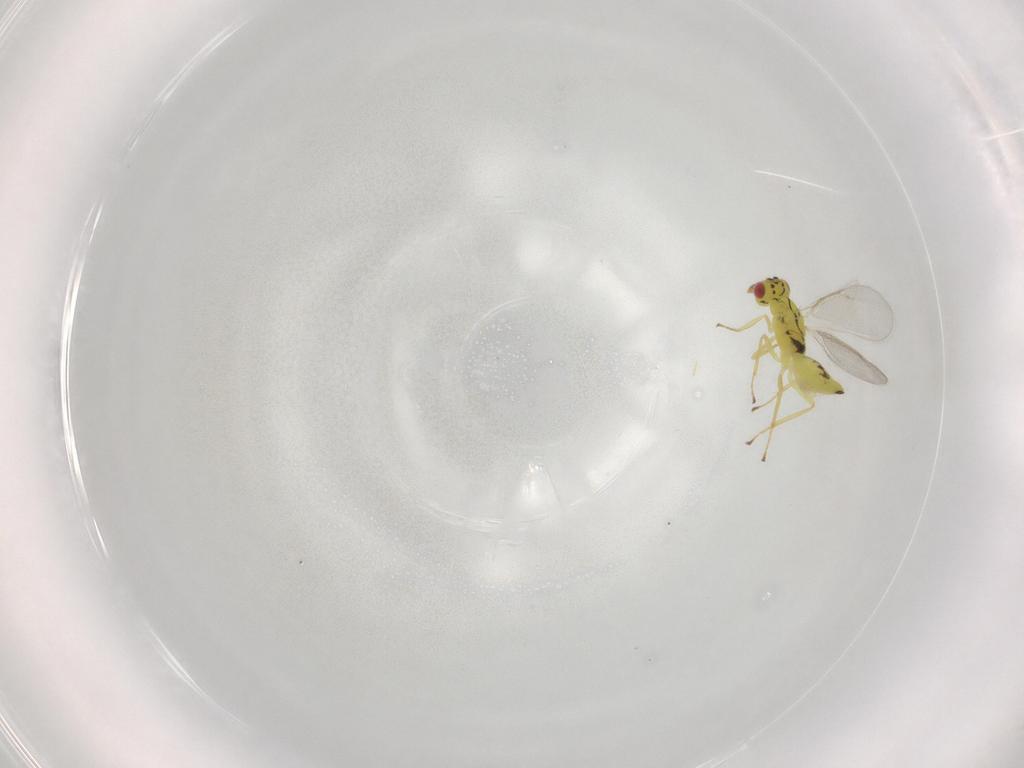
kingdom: Animalia
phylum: Arthropoda
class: Insecta
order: Hymenoptera
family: Eulophidae
